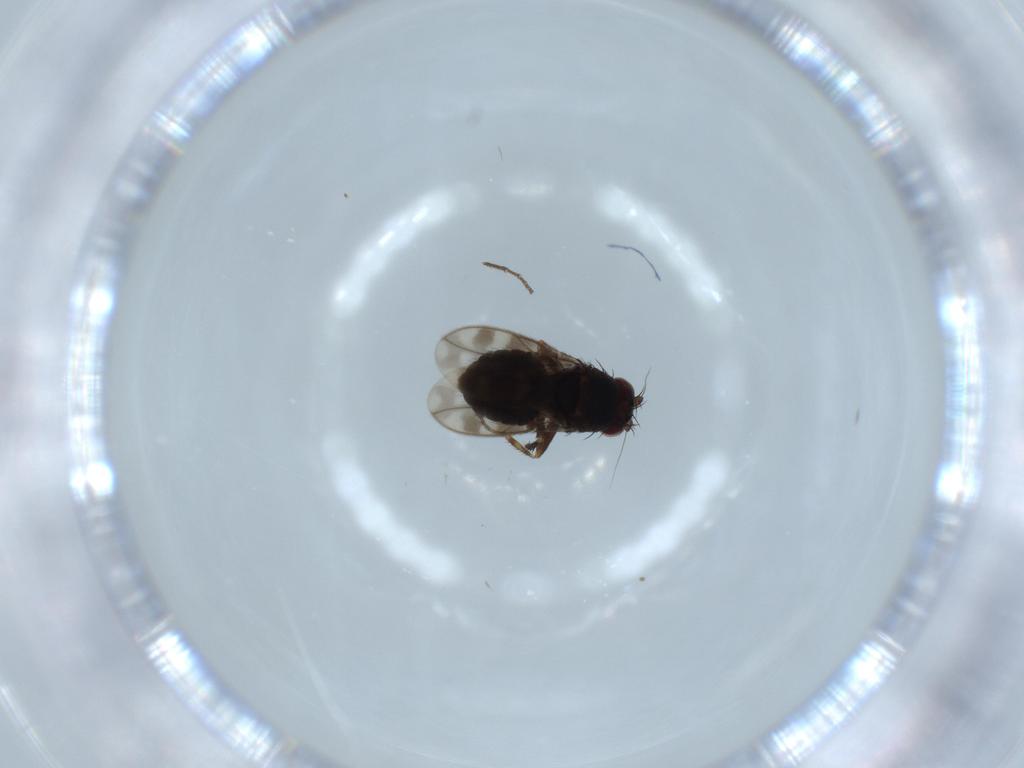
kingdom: Animalia
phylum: Arthropoda
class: Insecta
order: Diptera
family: Sphaeroceridae
